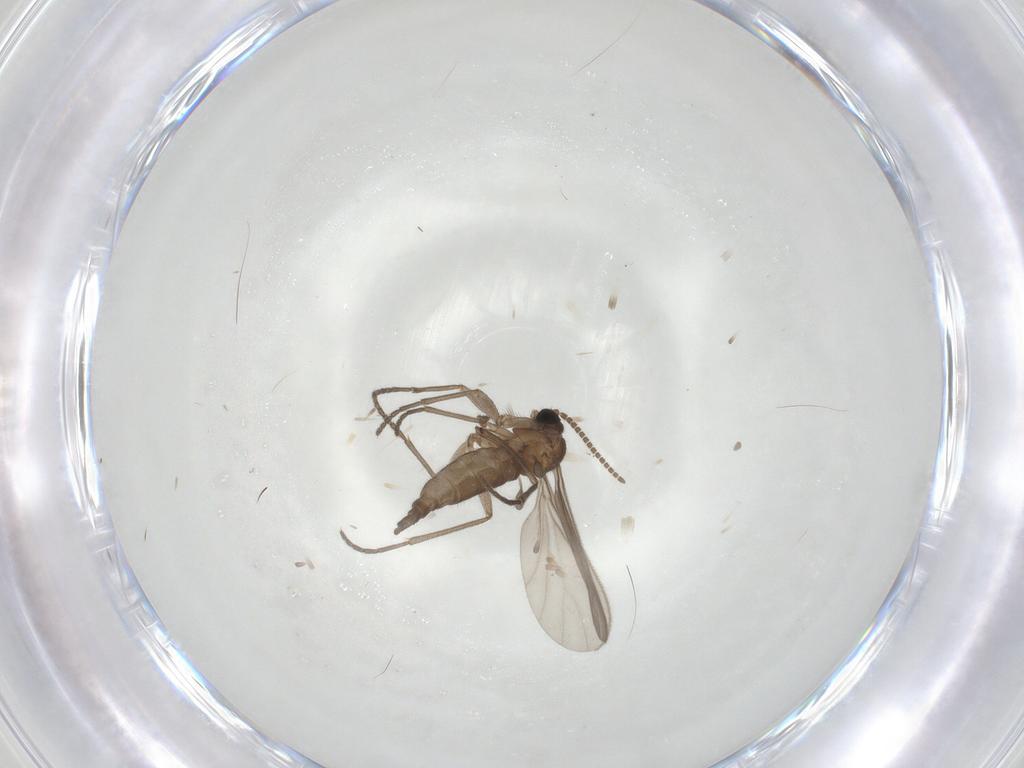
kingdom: Animalia
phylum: Arthropoda
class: Insecta
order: Diptera
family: Sciaridae
